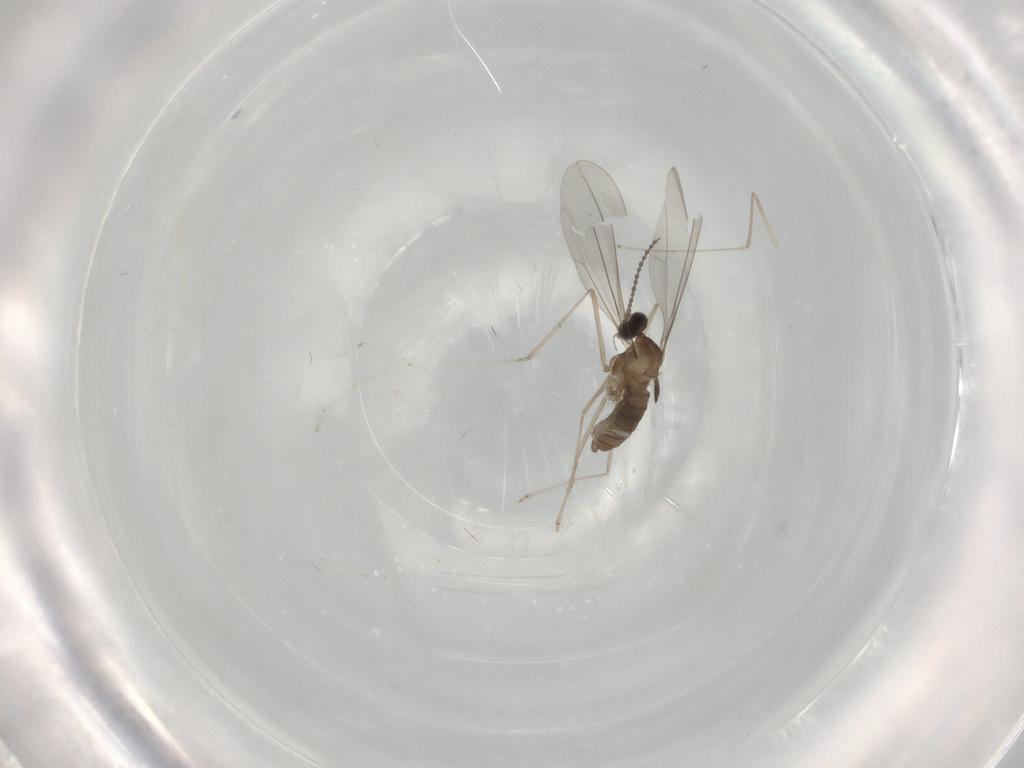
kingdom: Animalia
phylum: Arthropoda
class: Insecta
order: Diptera
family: Cecidomyiidae
